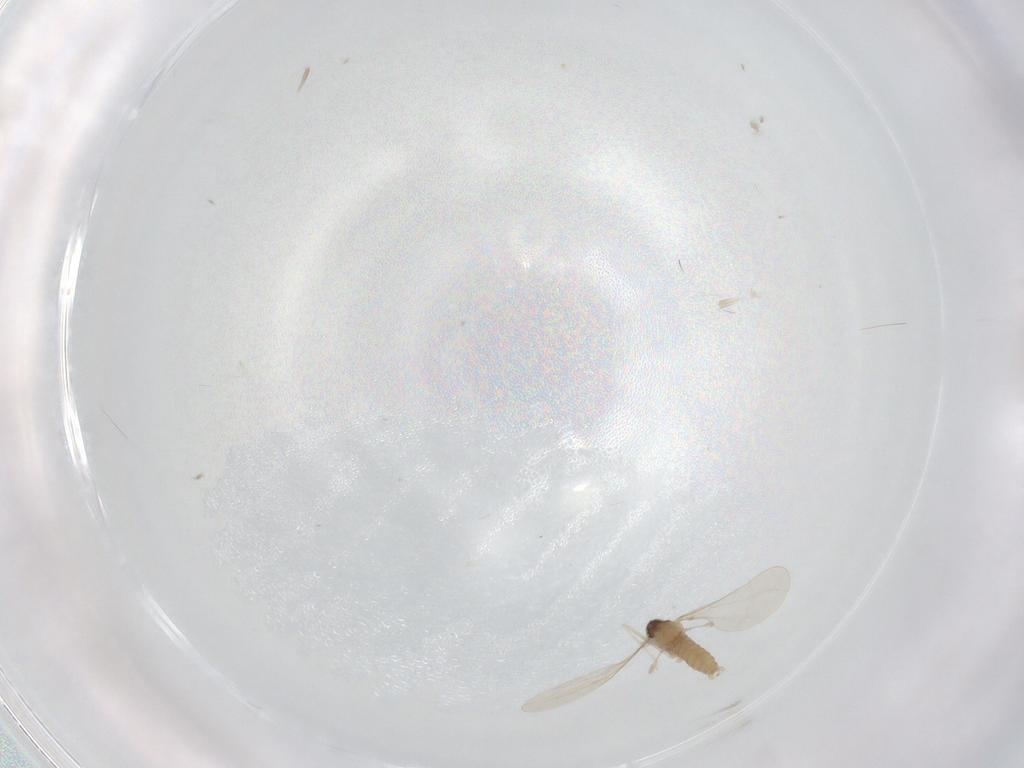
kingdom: Animalia
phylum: Arthropoda
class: Insecta
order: Diptera
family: Cecidomyiidae
